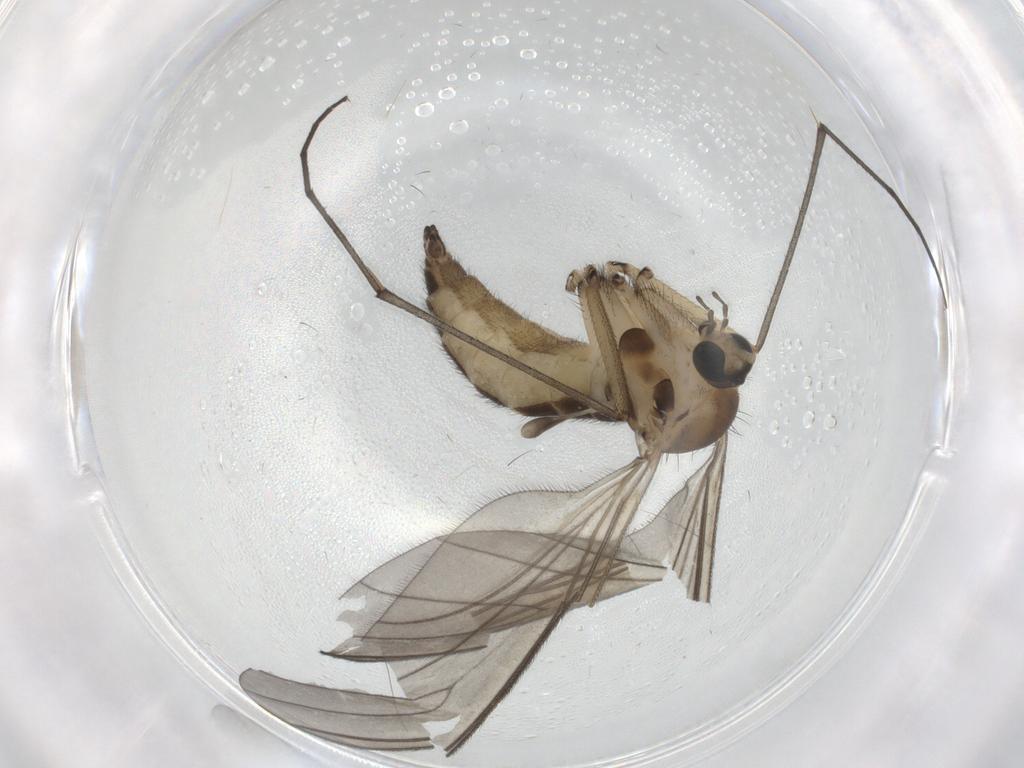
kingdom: Animalia
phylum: Arthropoda
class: Insecta
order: Diptera
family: Sciaridae
